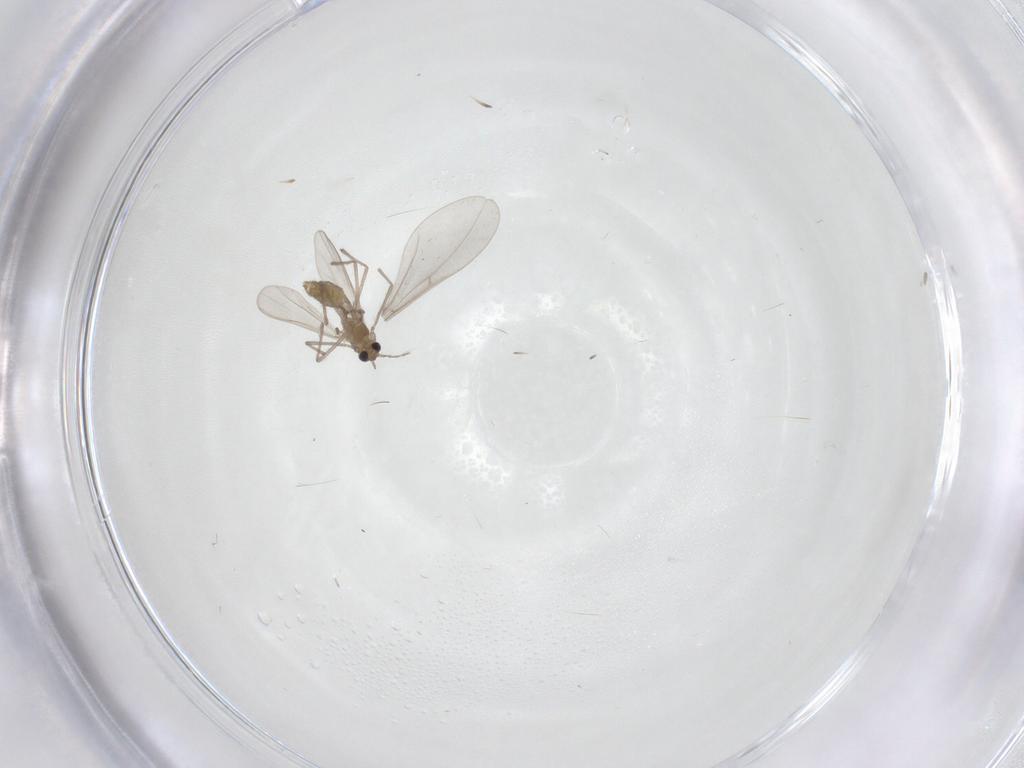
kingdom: Animalia
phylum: Arthropoda
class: Insecta
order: Diptera
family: Chironomidae
